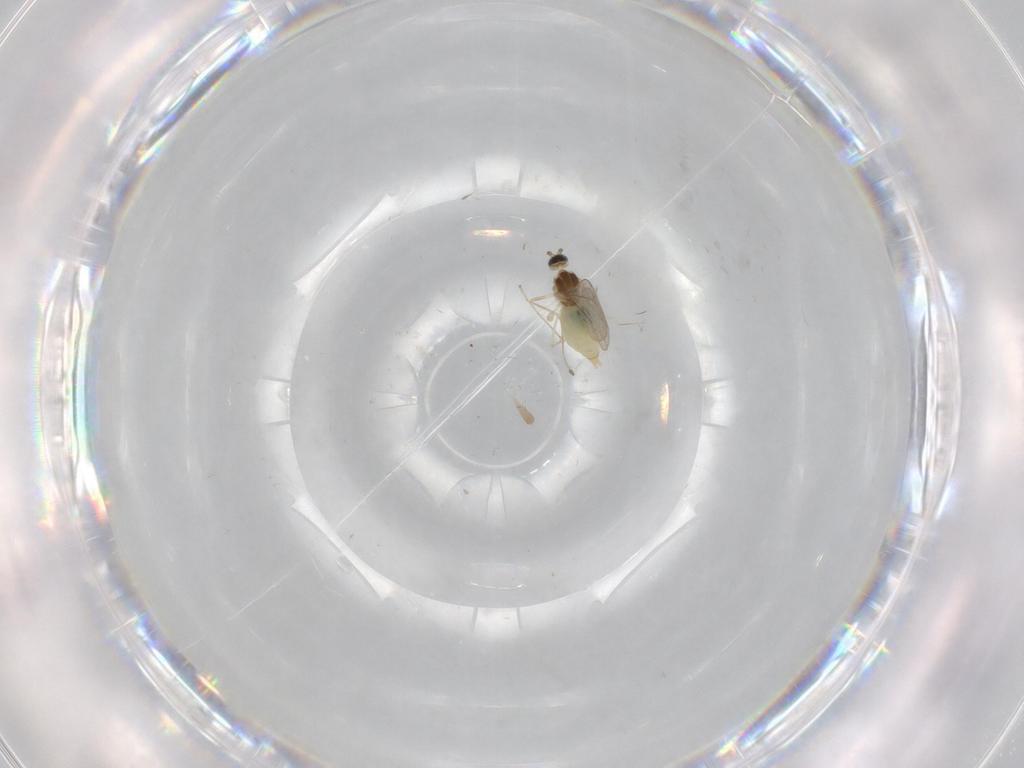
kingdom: Animalia
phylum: Arthropoda
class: Insecta
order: Diptera
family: Cecidomyiidae
